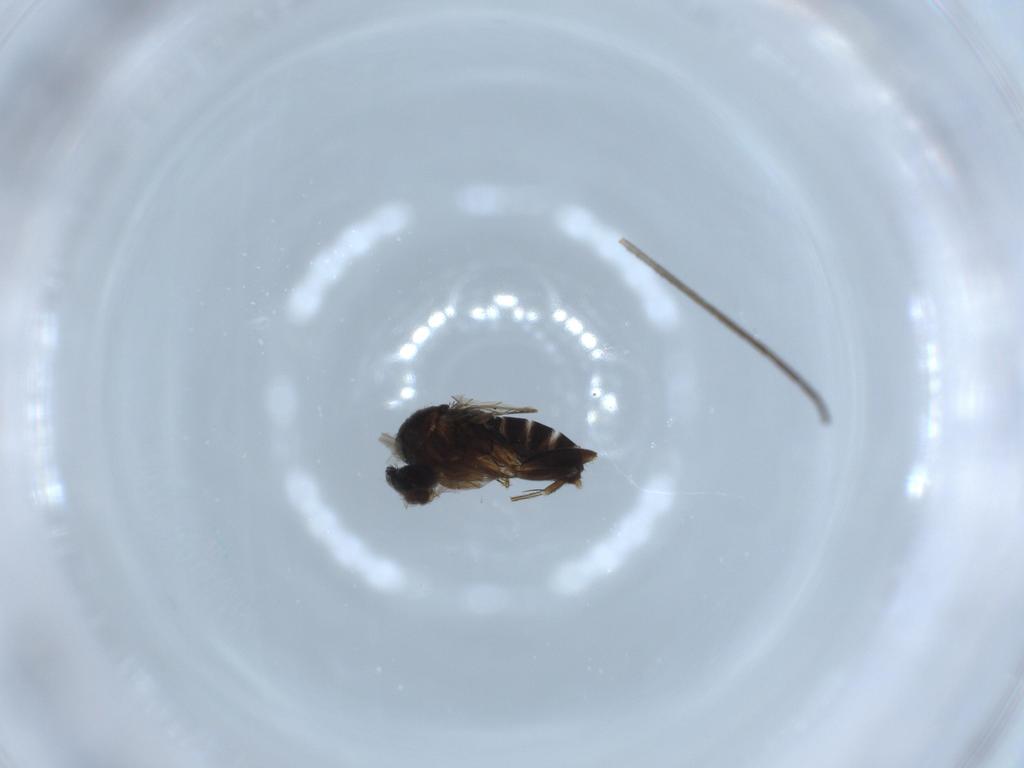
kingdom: Animalia
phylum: Arthropoda
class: Insecta
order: Diptera
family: Bolitophilidae
